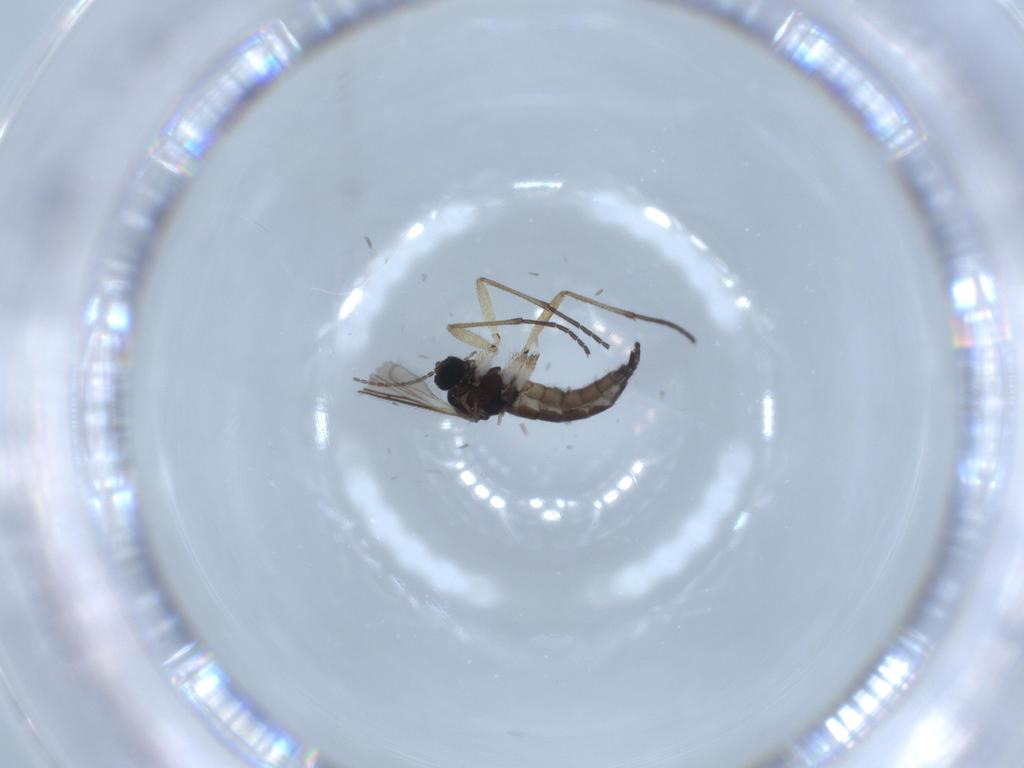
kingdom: Animalia
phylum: Arthropoda
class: Insecta
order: Diptera
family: Sciaridae
